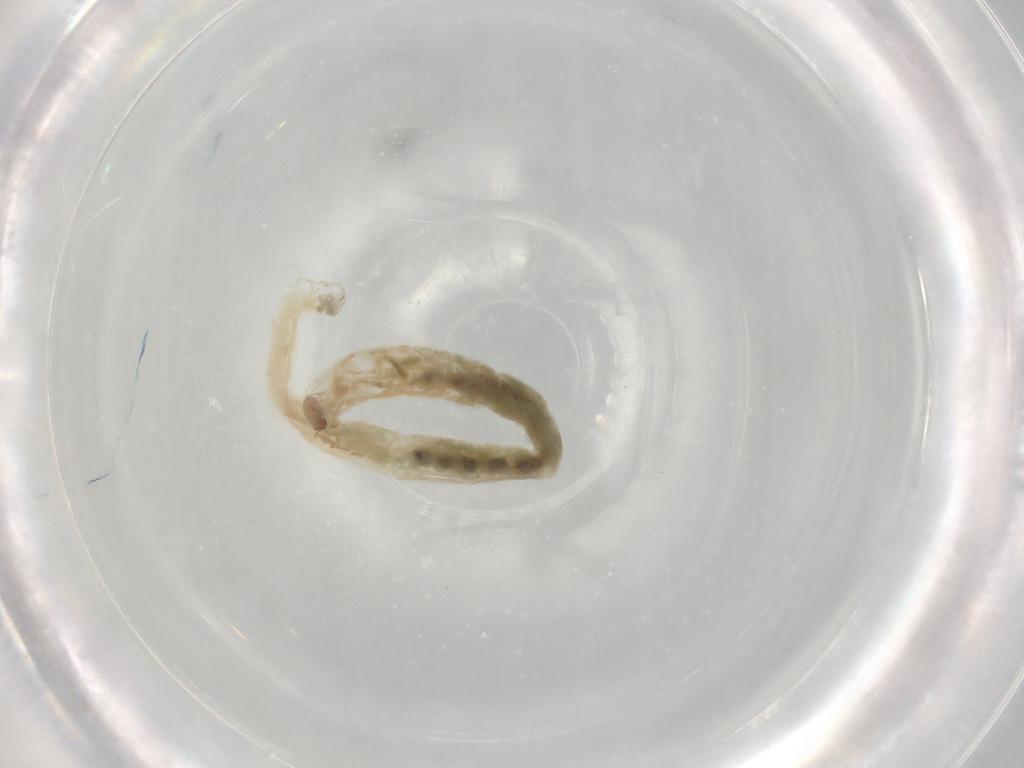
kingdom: Animalia
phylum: Arthropoda
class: Insecta
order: Diptera
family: Chironomidae
